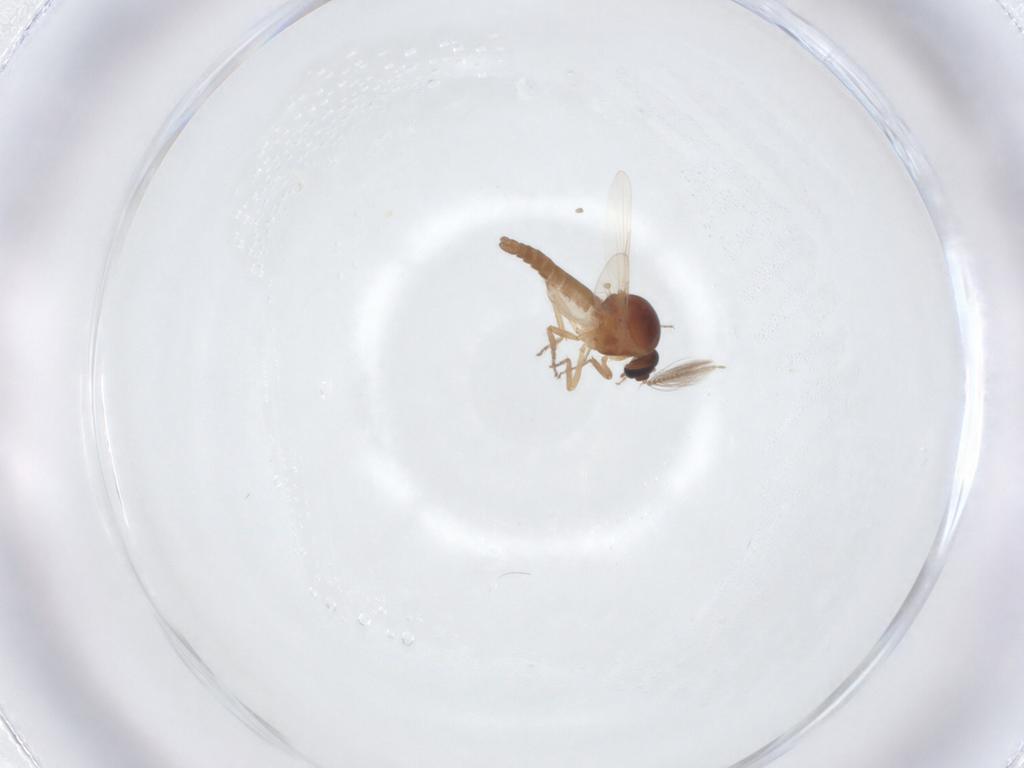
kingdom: Animalia
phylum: Arthropoda
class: Insecta
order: Diptera
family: Ceratopogonidae
